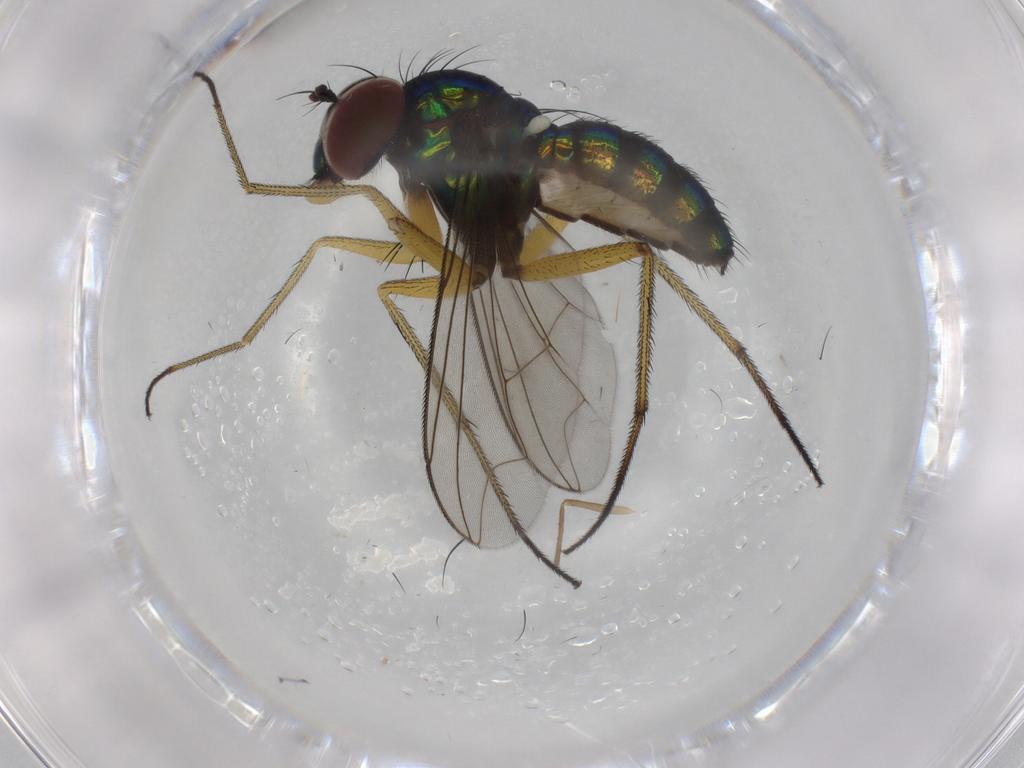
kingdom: Animalia
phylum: Arthropoda
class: Insecta
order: Diptera
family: Dolichopodidae
